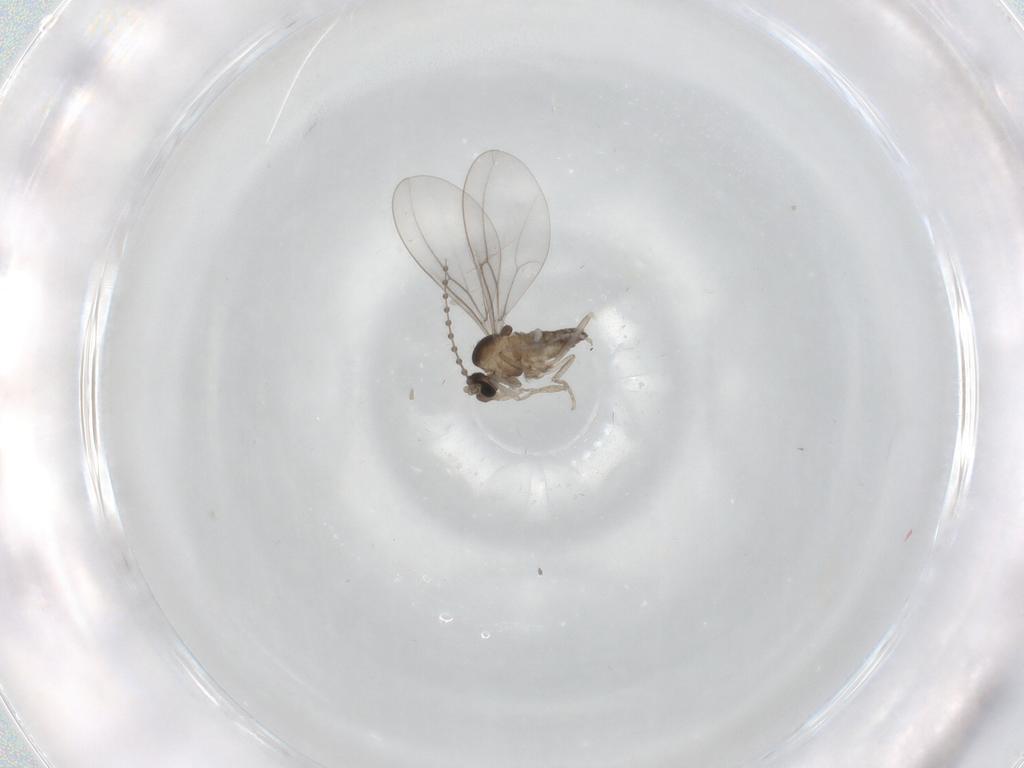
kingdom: Animalia
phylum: Arthropoda
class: Insecta
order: Diptera
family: Cecidomyiidae
